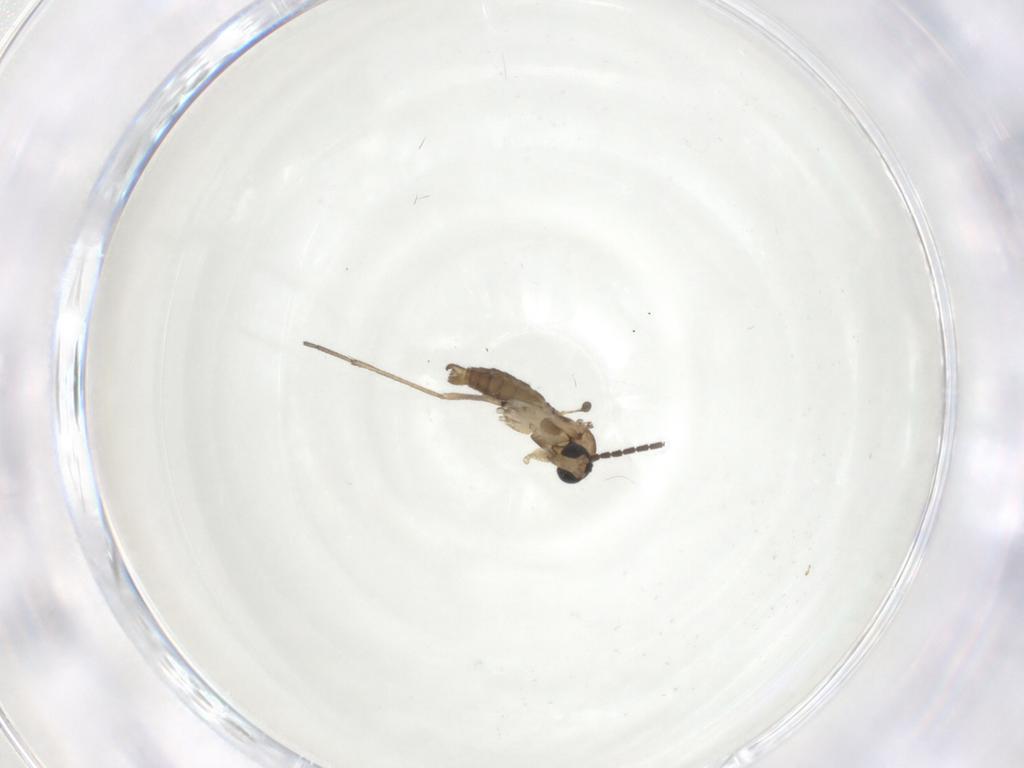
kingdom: Animalia
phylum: Arthropoda
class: Insecta
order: Diptera
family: Sciaridae
